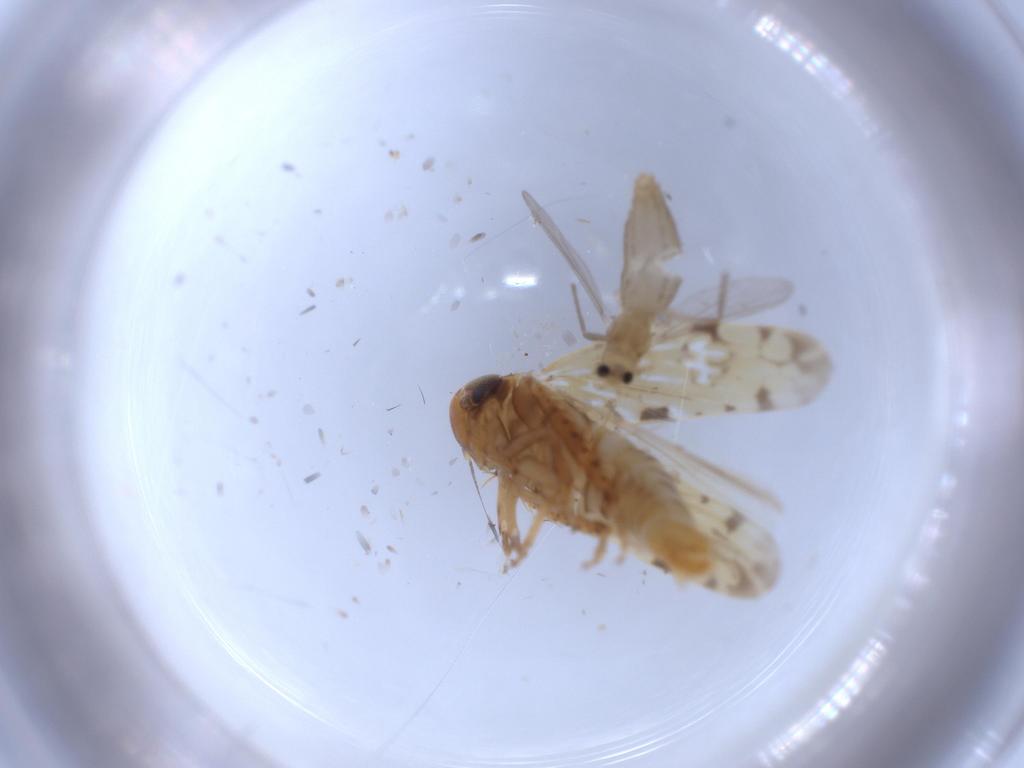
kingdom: Animalia
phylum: Arthropoda
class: Insecta
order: Diptera
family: Chironomidae
